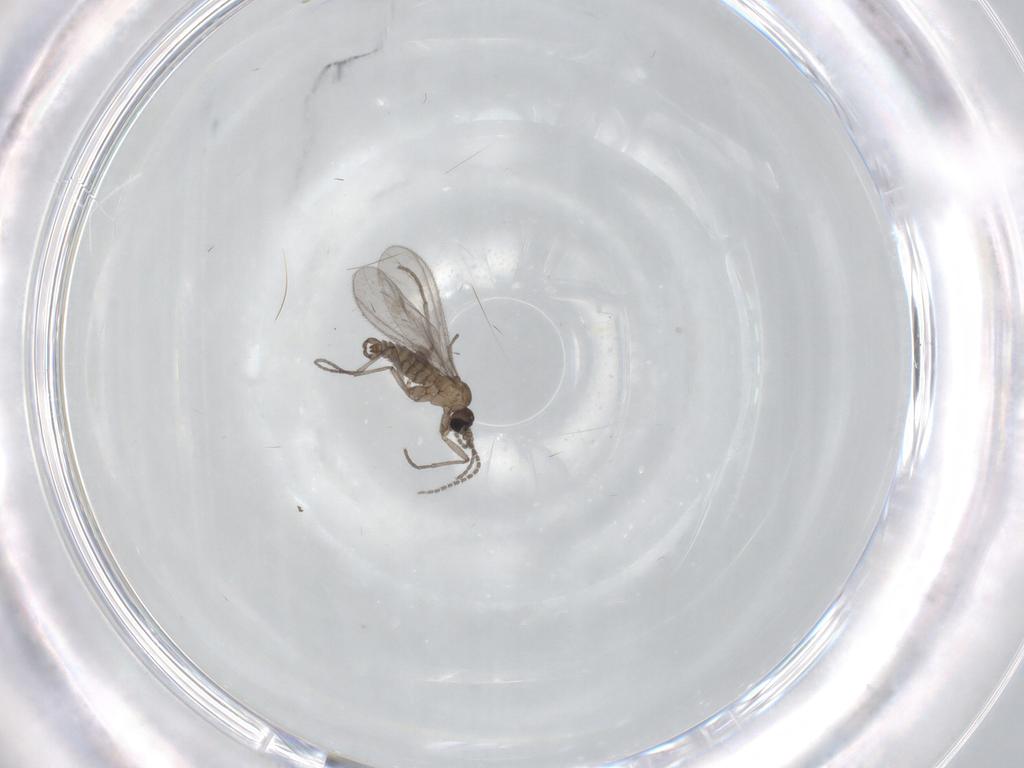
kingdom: Animalia
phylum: Arthropoda
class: Insecta
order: Diptera
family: Sciaridae
